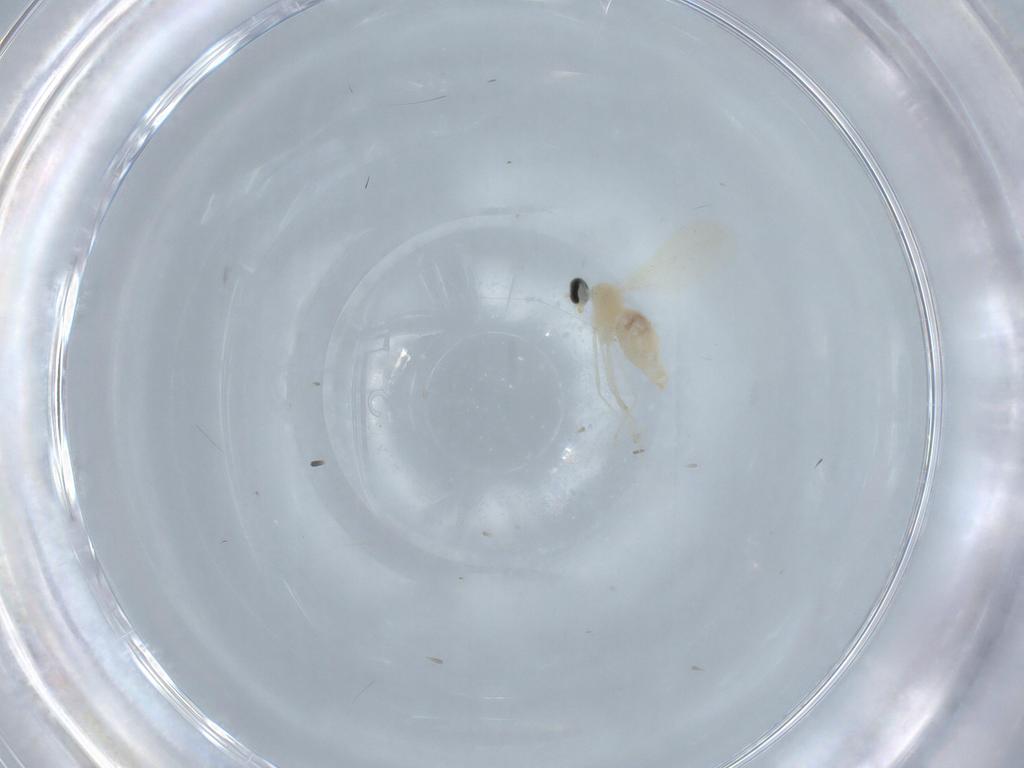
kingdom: Animalia
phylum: Arthropoda
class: Insecta
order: Diptera
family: Cecidomyiidae
